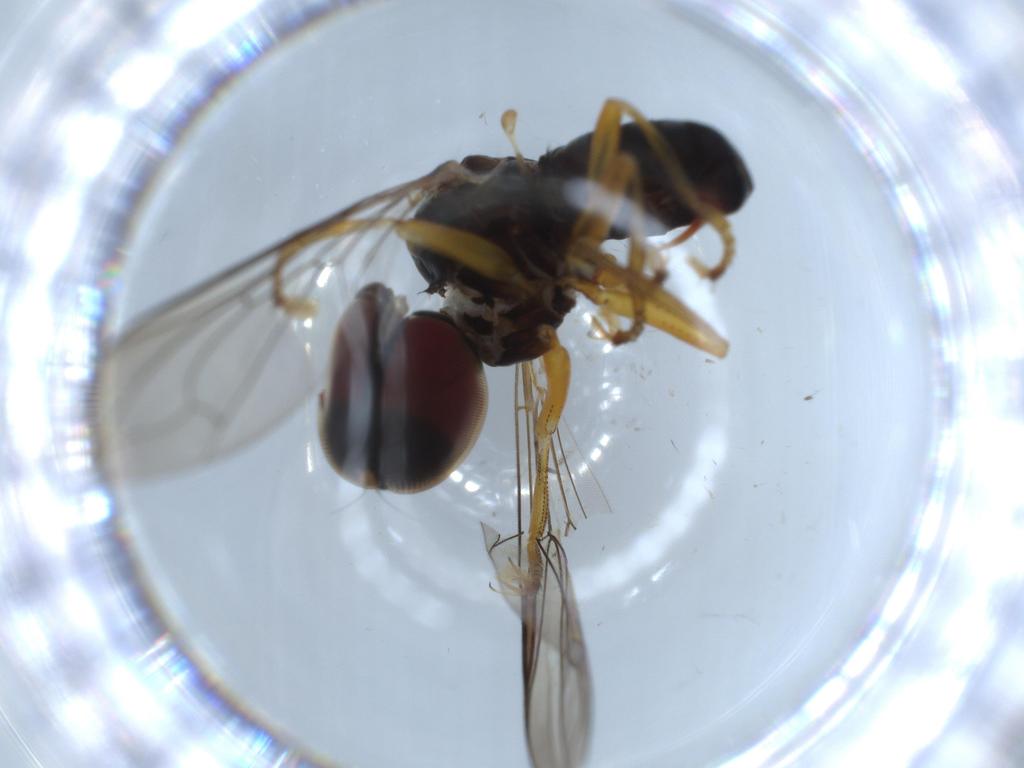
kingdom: Animalia
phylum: Arthropoda
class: Insecta
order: Diptera
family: Pipunculidae
